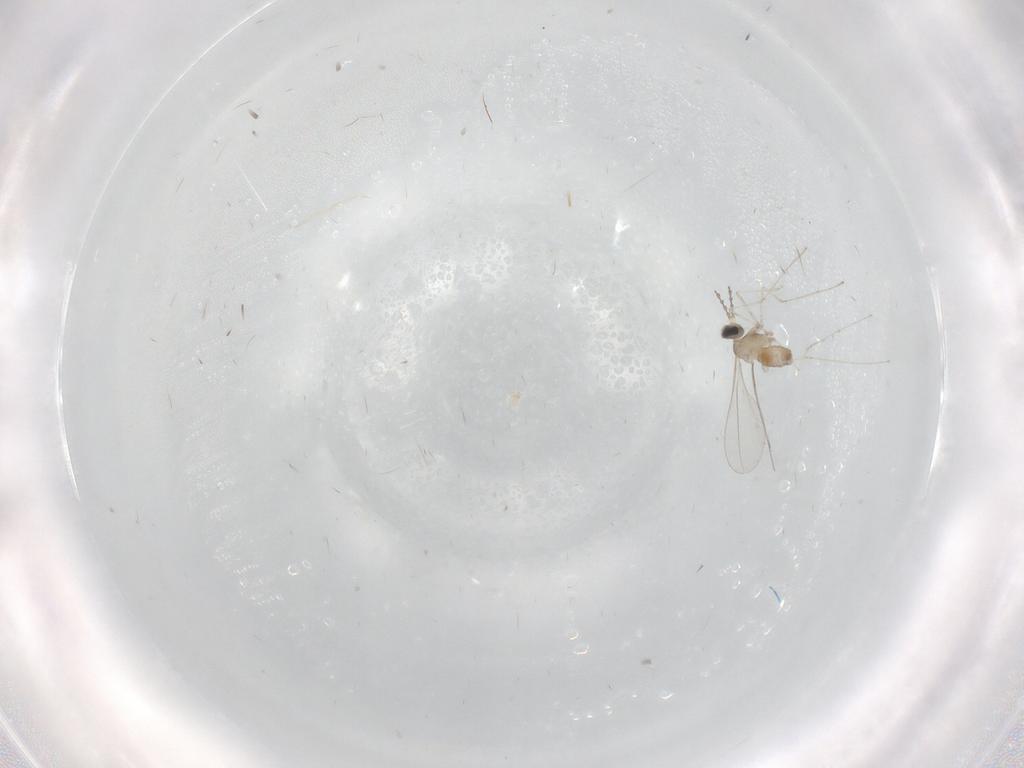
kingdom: Animalia
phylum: Arthropoda
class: Insecta
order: Diptera
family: Cecidomyiidae
